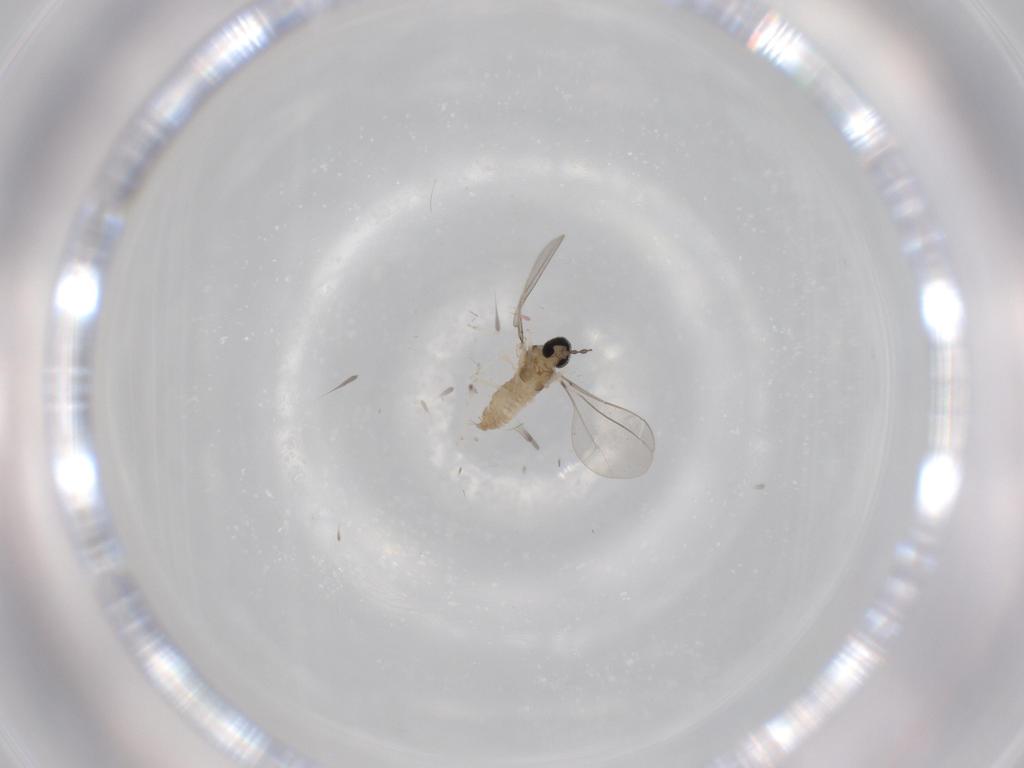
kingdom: Animalia
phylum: Arthropoda
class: Insecta
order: Diptera
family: Cecidomyiidae
